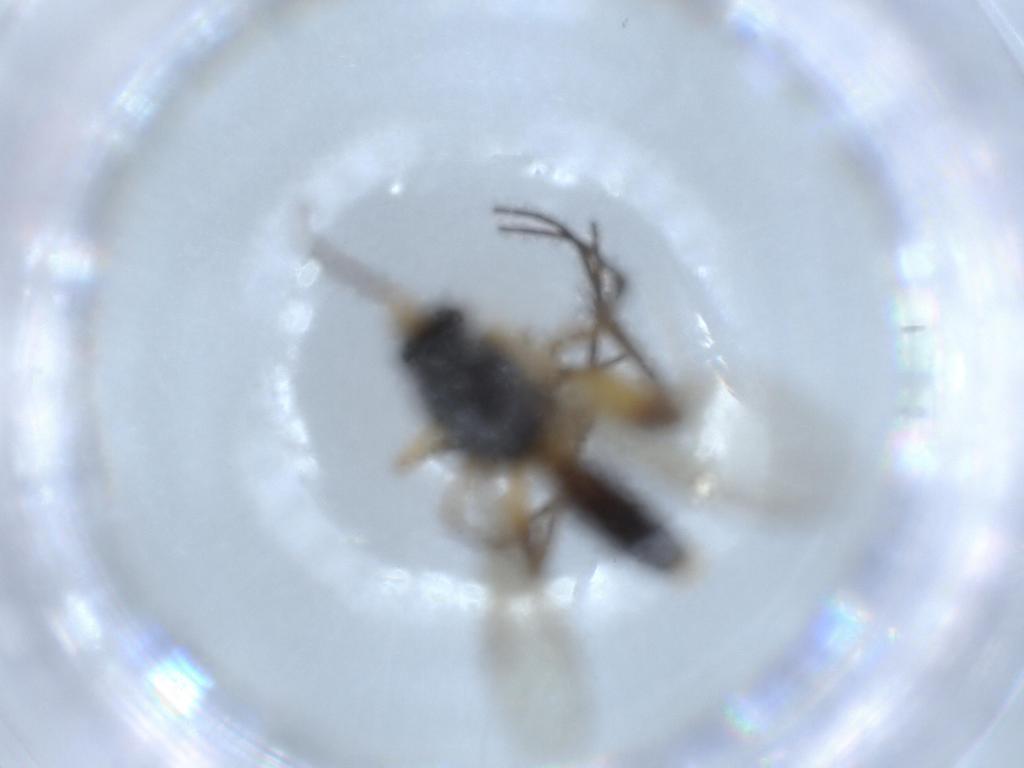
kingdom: Animalia
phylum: Arthropoda
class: Insecta
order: Diptera
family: Cecidomyiidae
